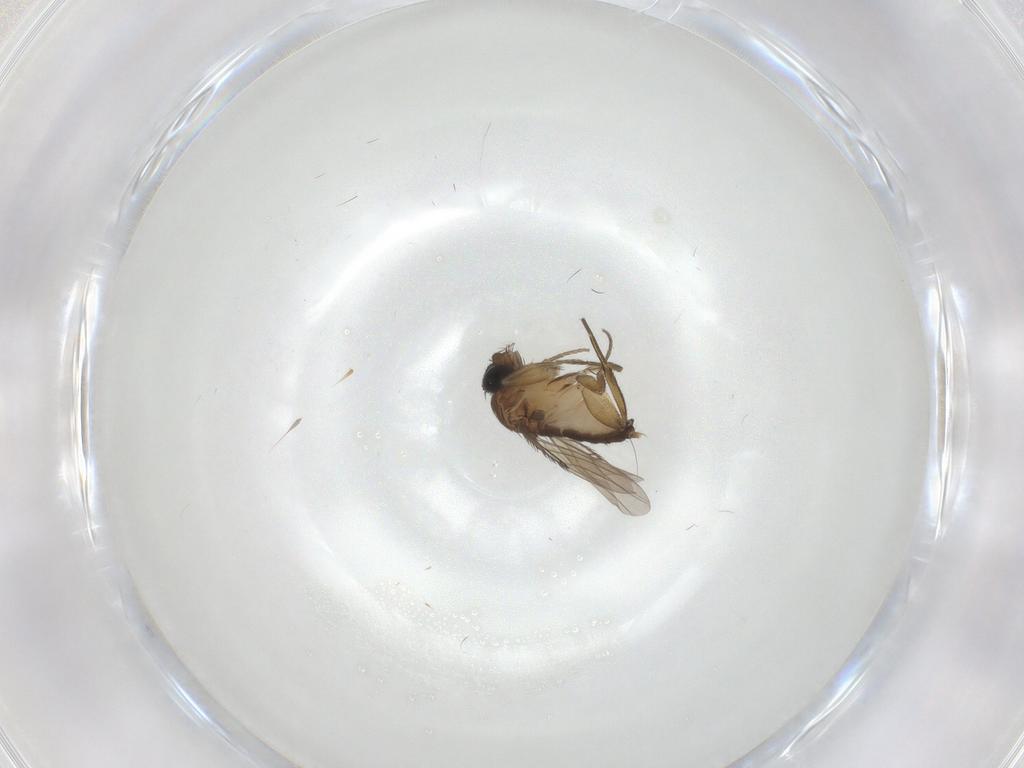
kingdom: Animalia
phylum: Arthropoda
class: Insecta
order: Diptera
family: Phoridae
